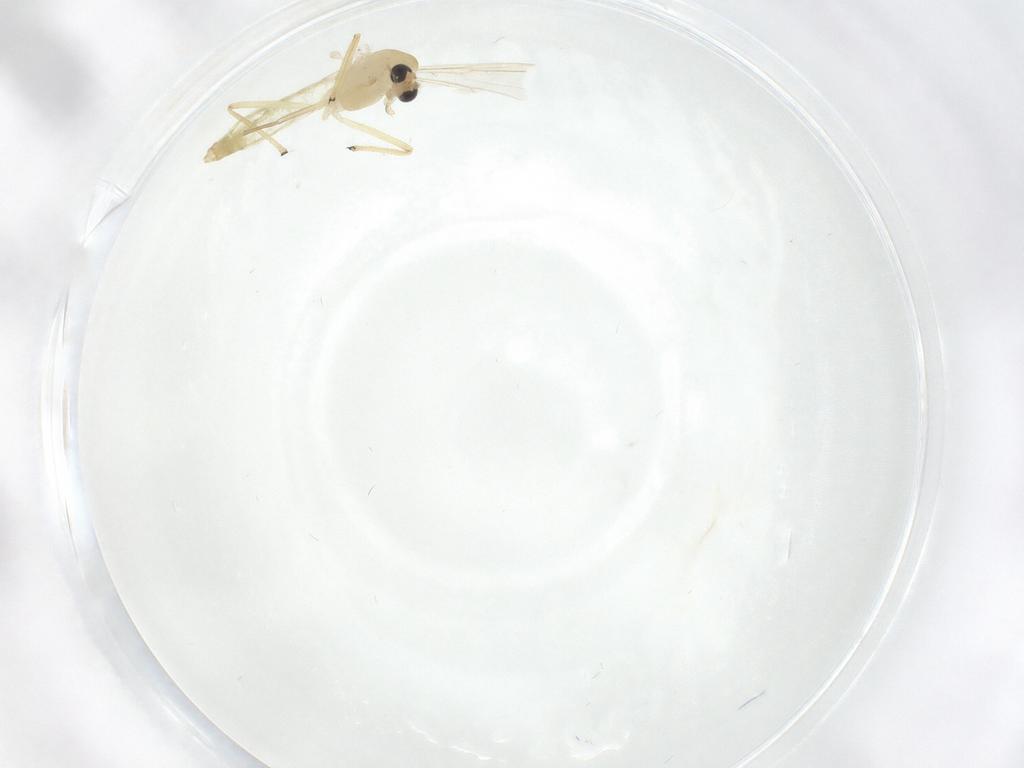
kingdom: Animalia
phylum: Arthropoda
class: Insecta
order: Diptera
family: Chironomidae
